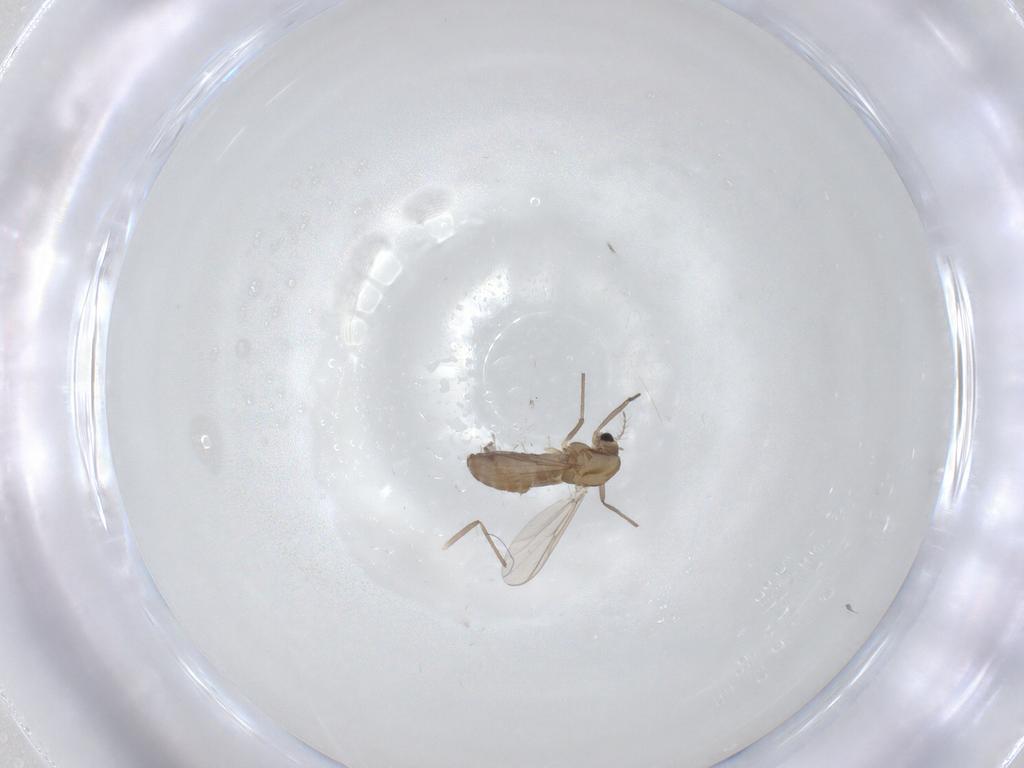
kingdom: Animalia
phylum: Arthropoda
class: Insecta
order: Diptera
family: Chironomidae
